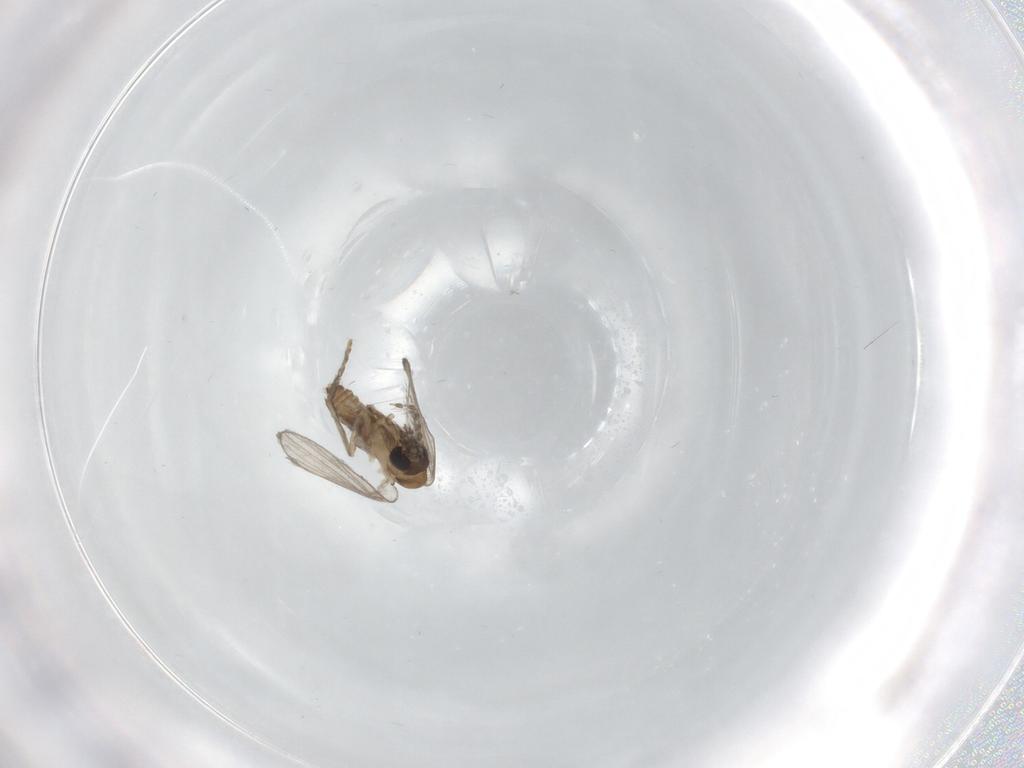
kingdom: Animalia
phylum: Arthropoda
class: Insecta
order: Diptera
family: Psychodidae
